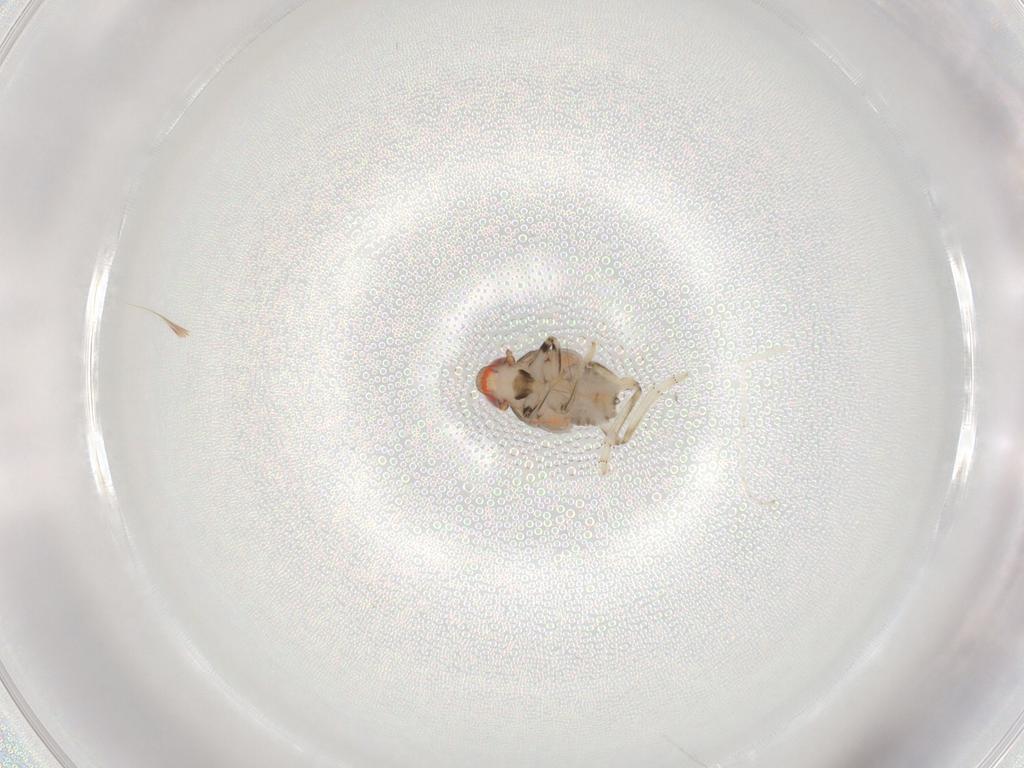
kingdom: Animalia
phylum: Arthropoda
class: Insecta
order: Hemiptera
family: Issidae
